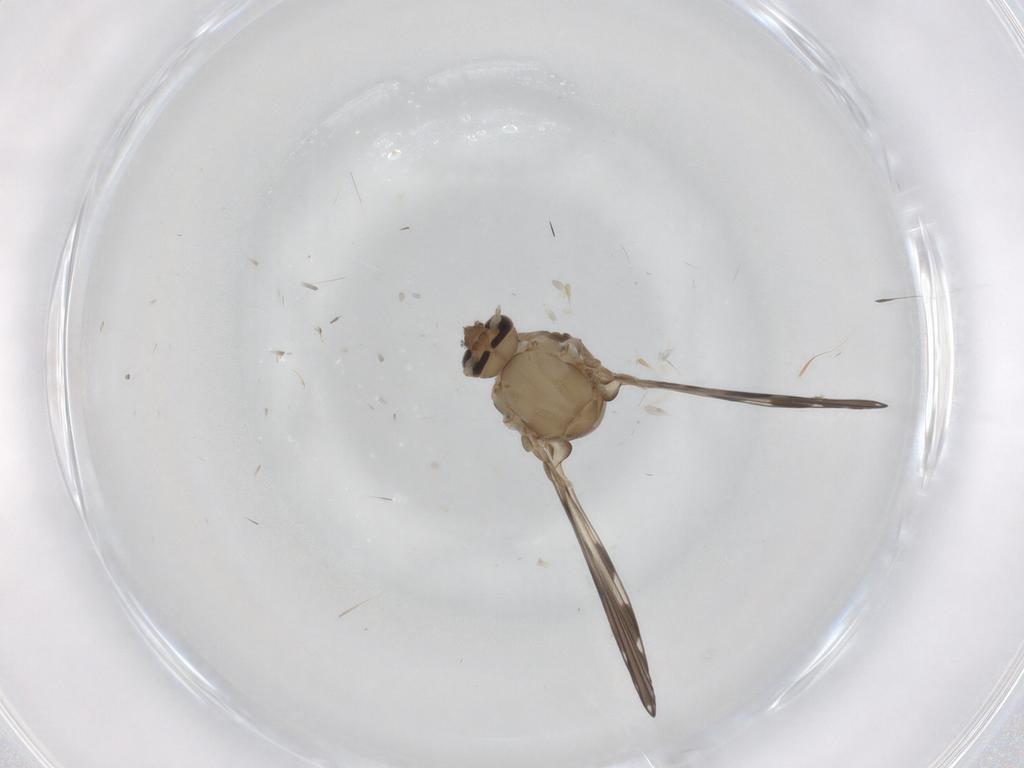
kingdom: Animalia
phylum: Arthropoda
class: Insecta
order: Diptera
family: Psychodidae
